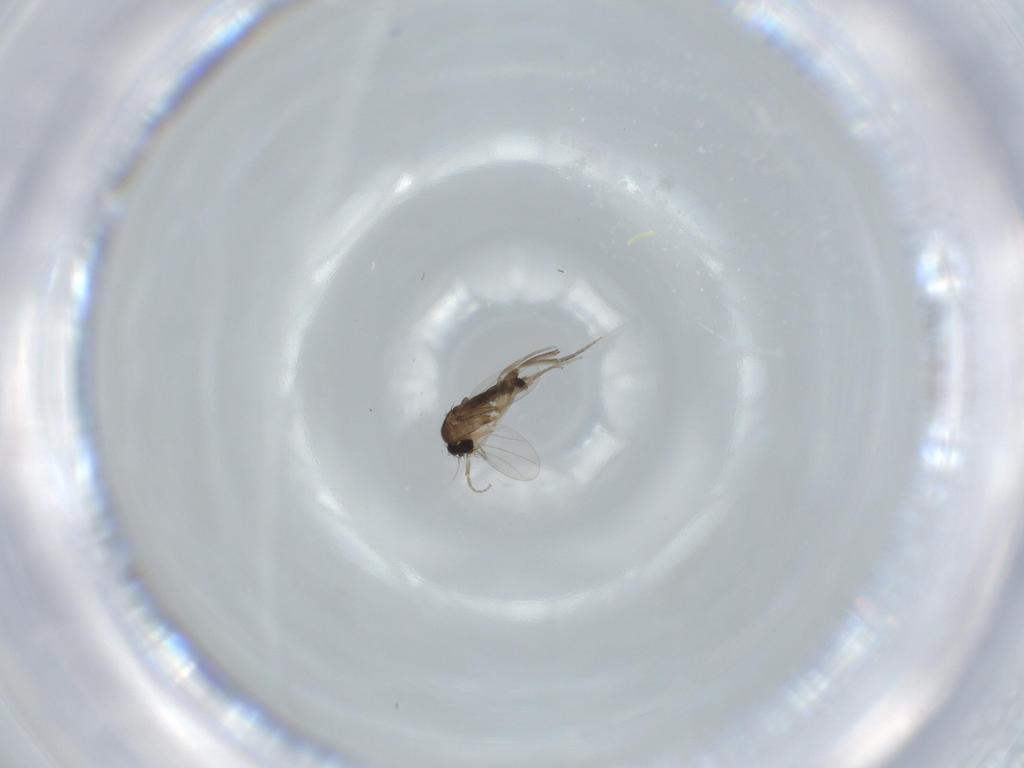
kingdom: Animalia
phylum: Arthropoda
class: Insecta
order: Diptera
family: Phoridae
